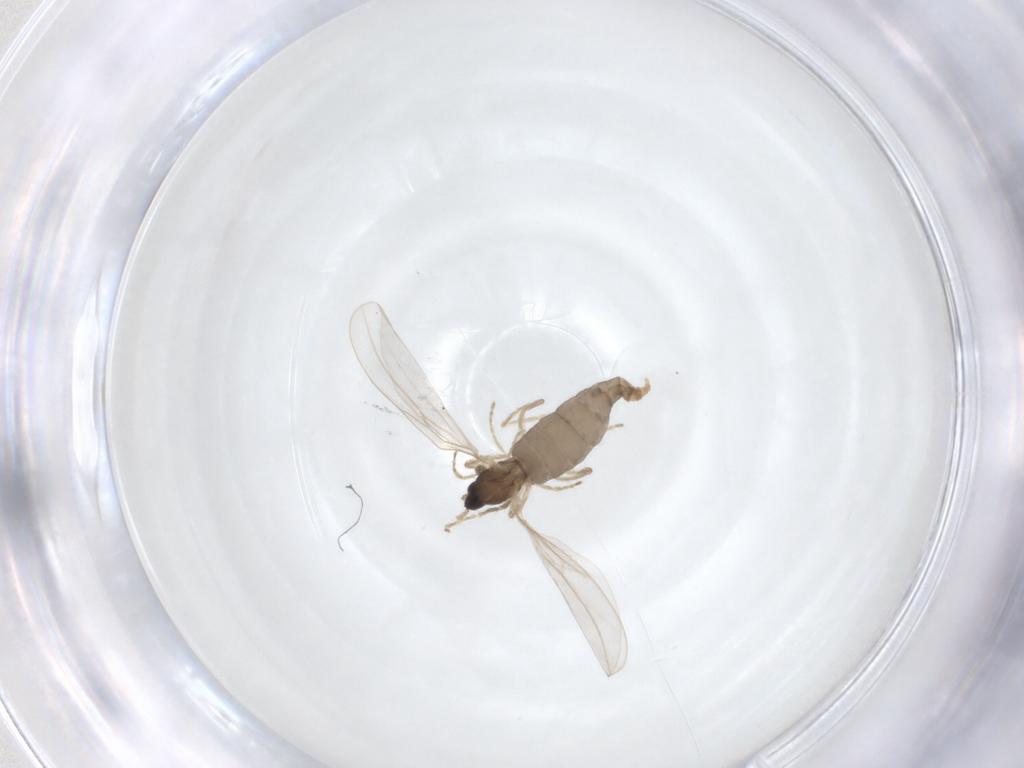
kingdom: Animalia
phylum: Arthropoda
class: Insecta
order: Diptera
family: Cecidomyiidae
